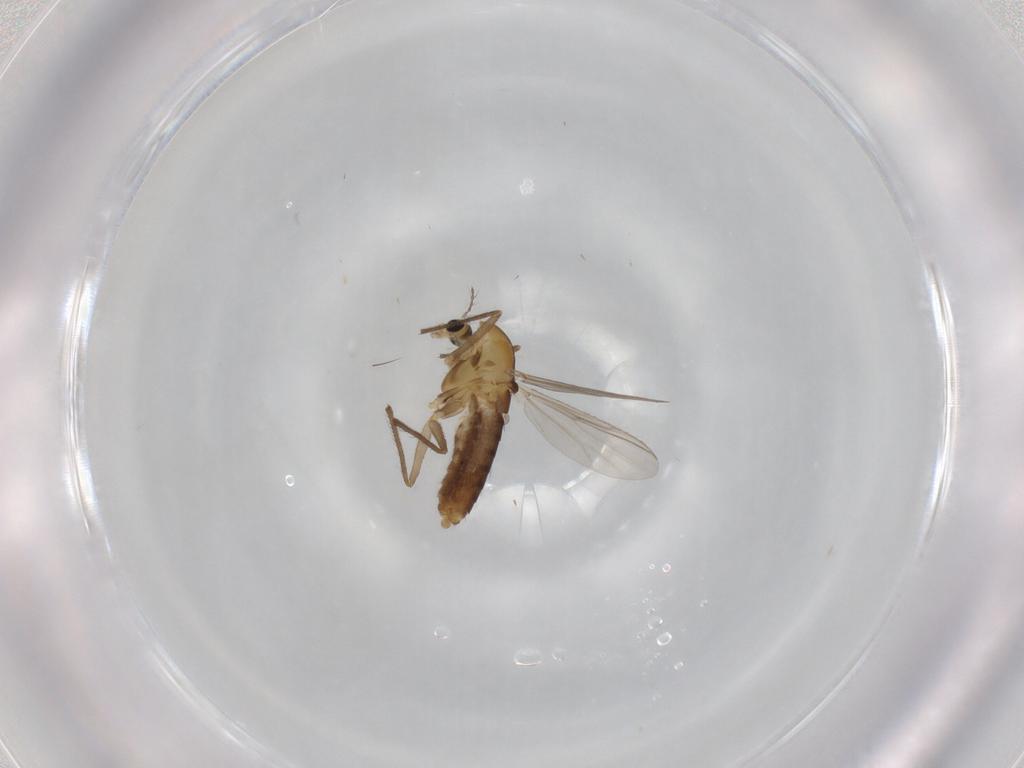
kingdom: Animalia
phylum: Arthropoda
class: Insecta
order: Diptera
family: Chironomidae
